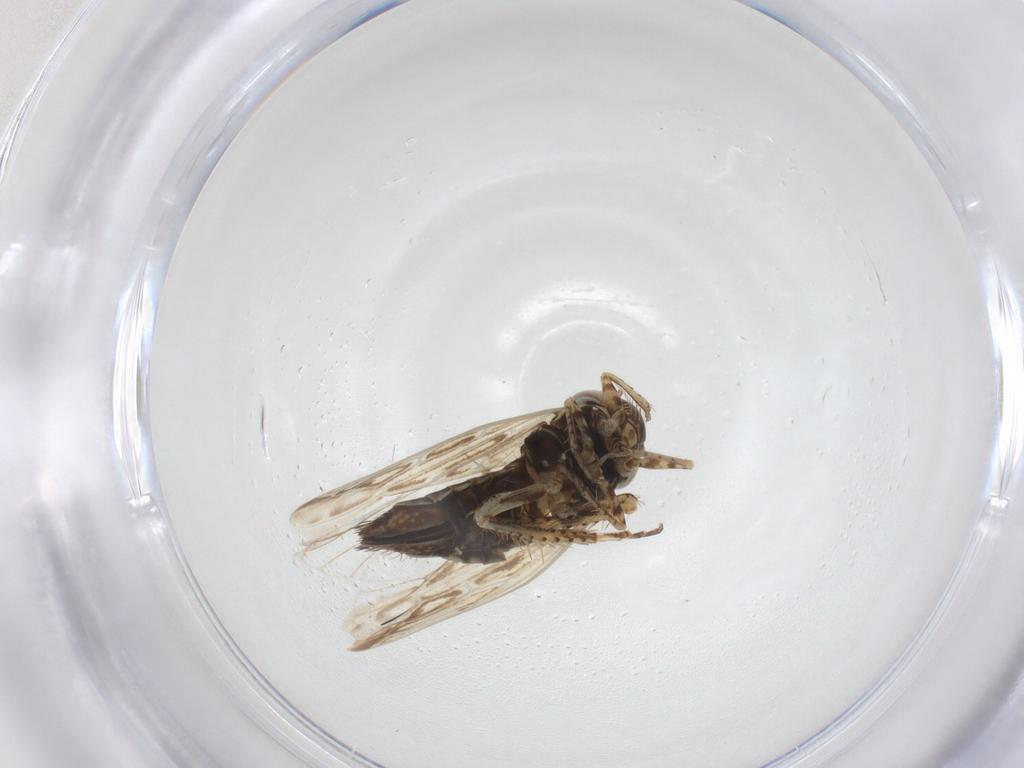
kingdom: Animalia
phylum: Arthropoda
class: Insecta
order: Hemiptera
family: Cicadellidae
